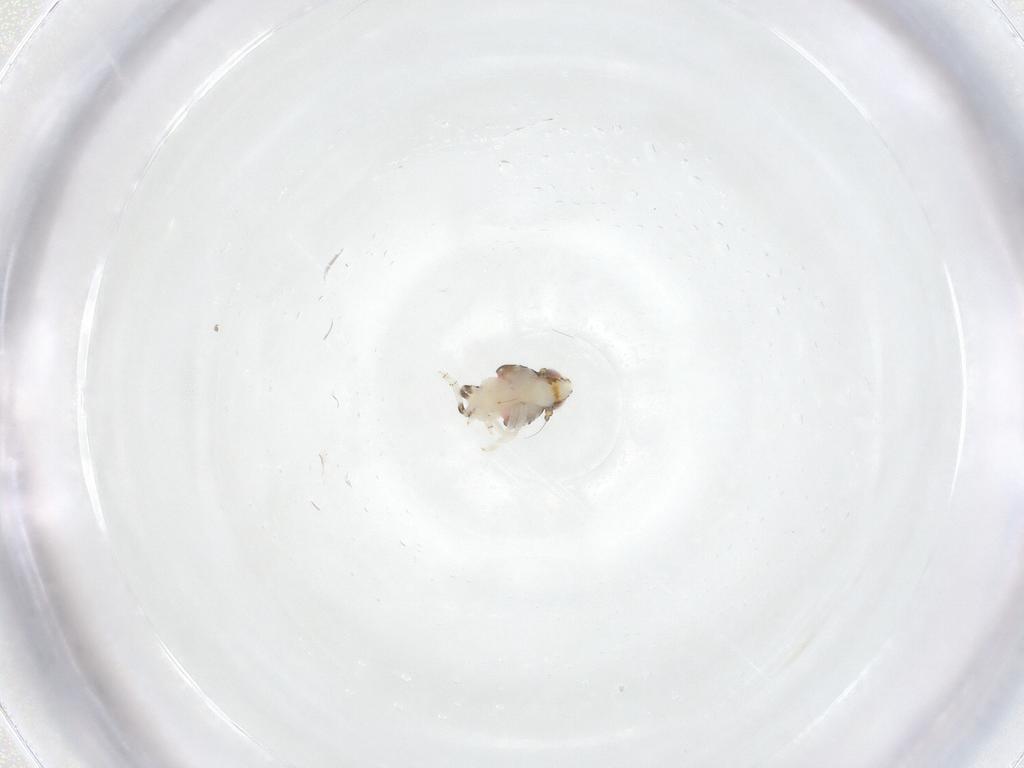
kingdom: Animalia
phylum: Arthropoda
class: Insecta
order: Hemiptera
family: Nogodinidae
